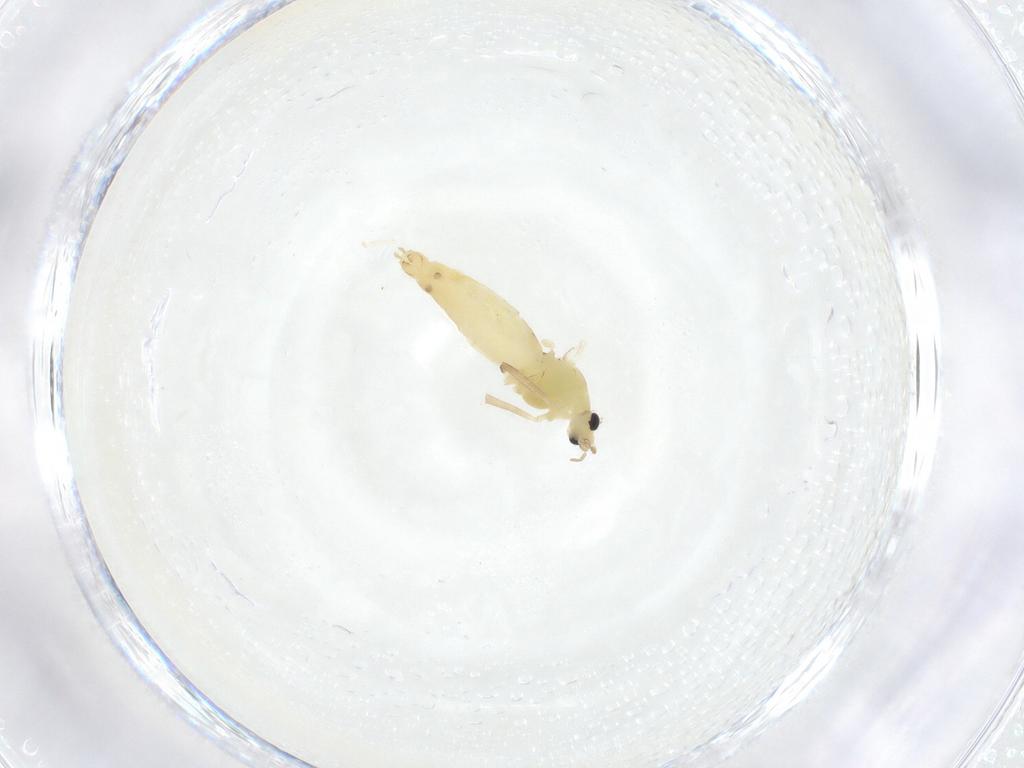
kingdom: Animalia
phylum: Arthropoda
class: Insecta
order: Diptera
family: Chironomidae
